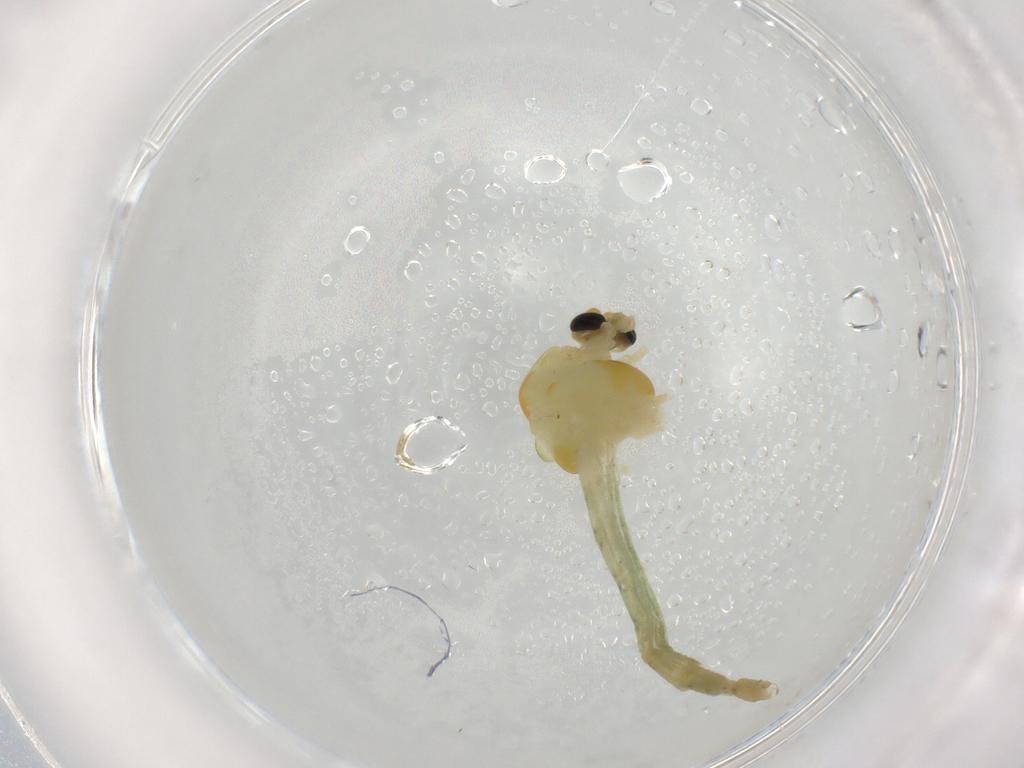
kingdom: Animalia
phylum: Arthropoda
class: Insecta
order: Diptera
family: Chironomidae
